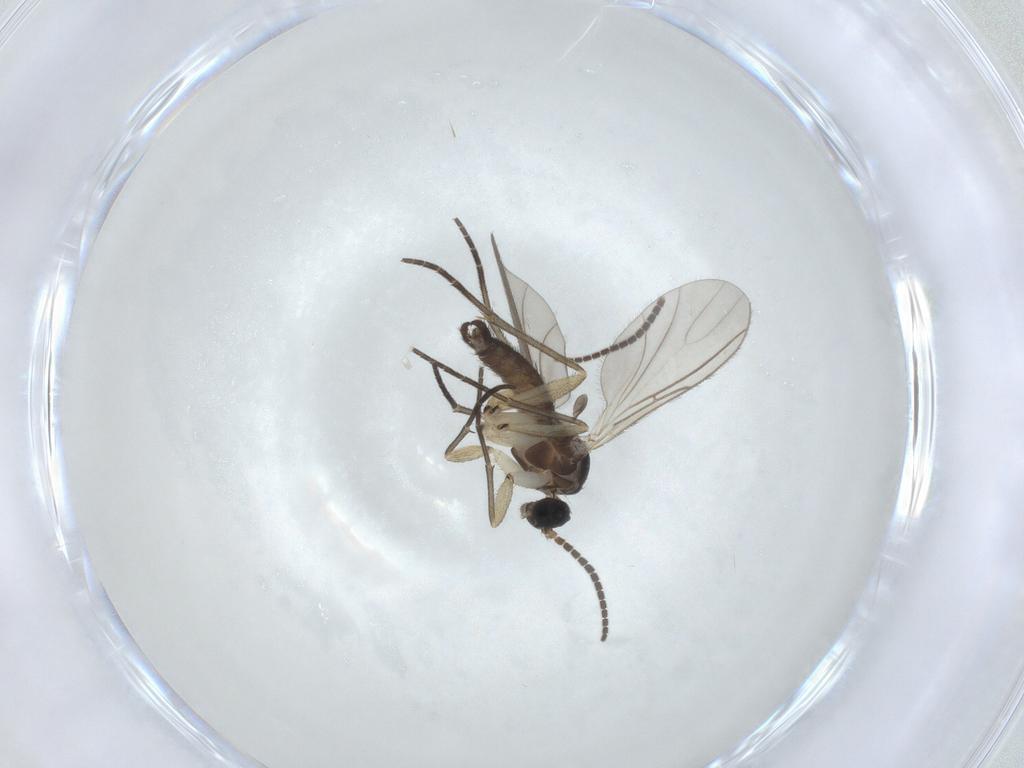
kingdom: Animalia
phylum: Arthropoda
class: Insecta
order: Diptera
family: Sciaridae
